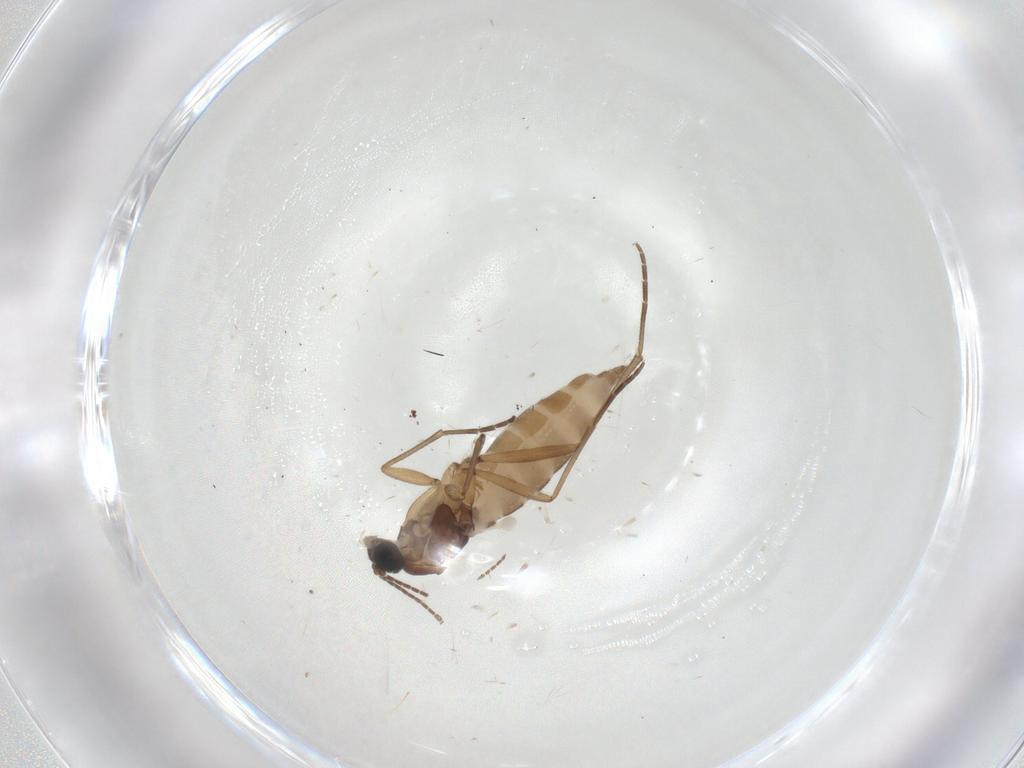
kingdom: Animalia
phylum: Arthropoda
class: Insecta
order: Diptera
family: Sciaridae
